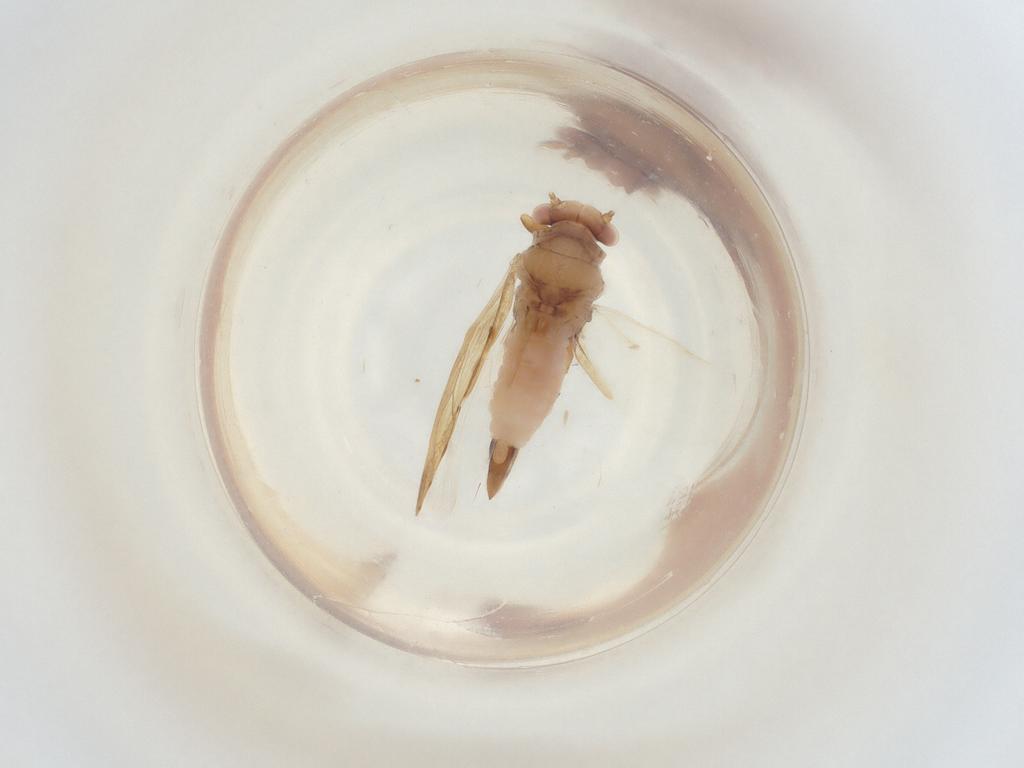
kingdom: Animalia
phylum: Arthropoda
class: Insecta
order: Hemiptera
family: Psyllidae
